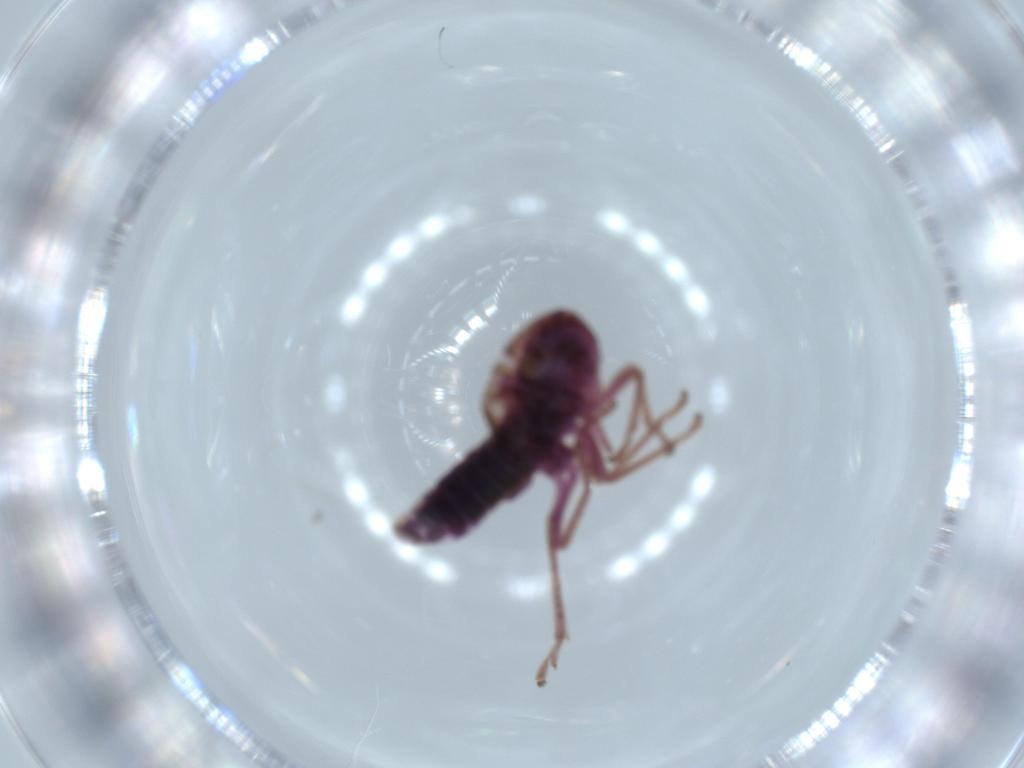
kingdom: Animalia
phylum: Arthropoda
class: Insecta
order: Hemiptera
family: Cicadellidae
